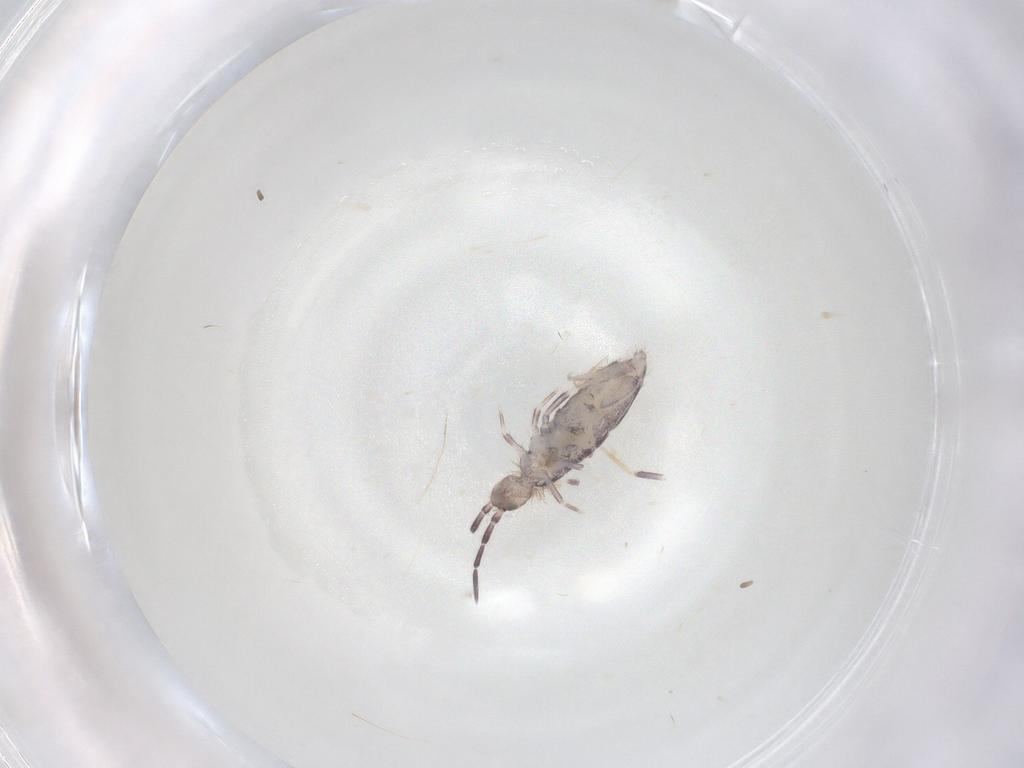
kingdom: Animalia
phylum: Arthropoda
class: Collembola
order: Poduromorpha
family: Hypogastruridae
